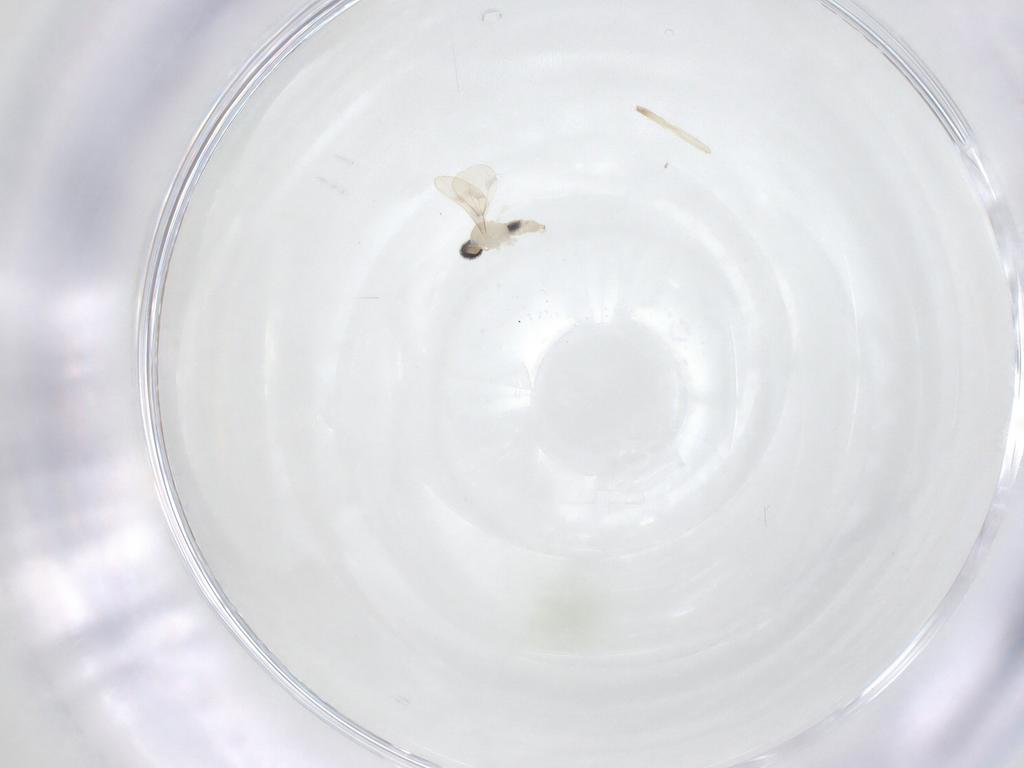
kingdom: Animalia
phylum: Arthropoda
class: Insecta
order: Diptera
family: Chironomidae
